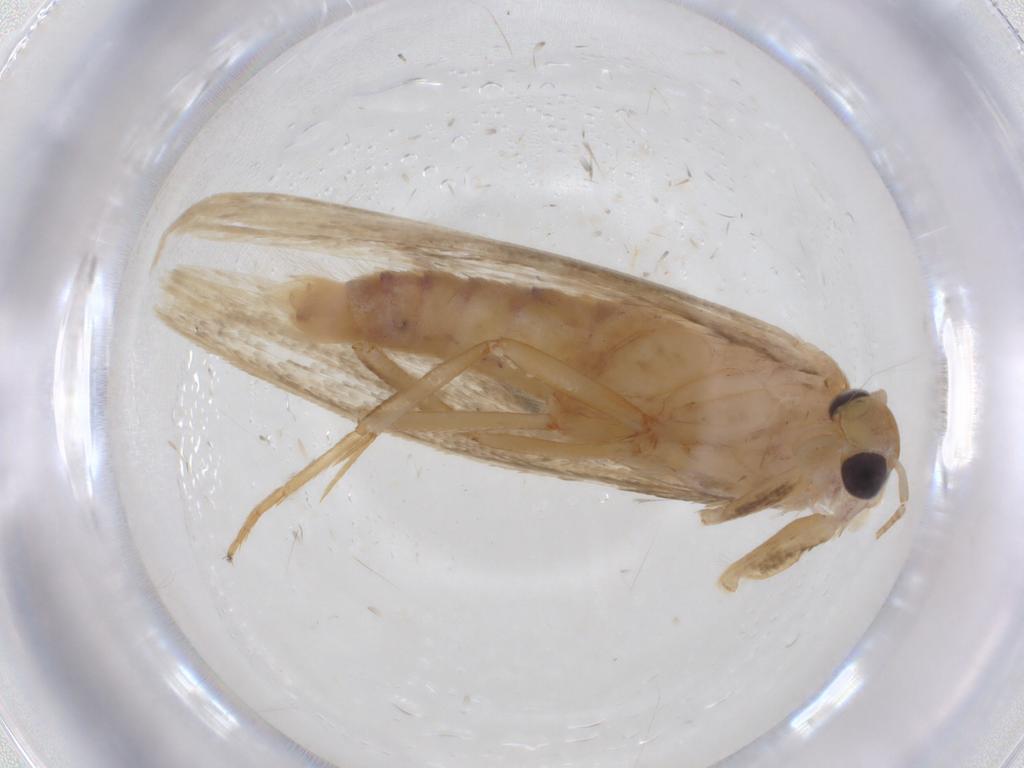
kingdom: Animalia
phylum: Arthropoda
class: Insecta
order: Lepidoptera
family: Stathmopodidae
